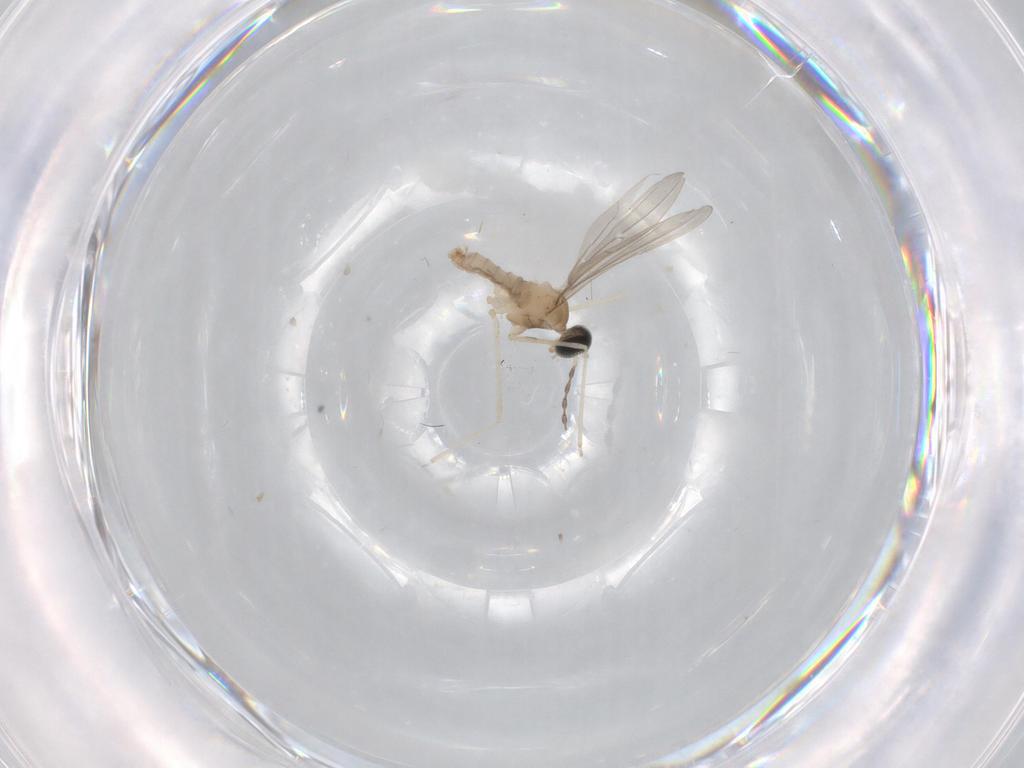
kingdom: Animalia
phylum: Arthropoda
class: Insecta
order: Diptera
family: Cecidomyiidae
